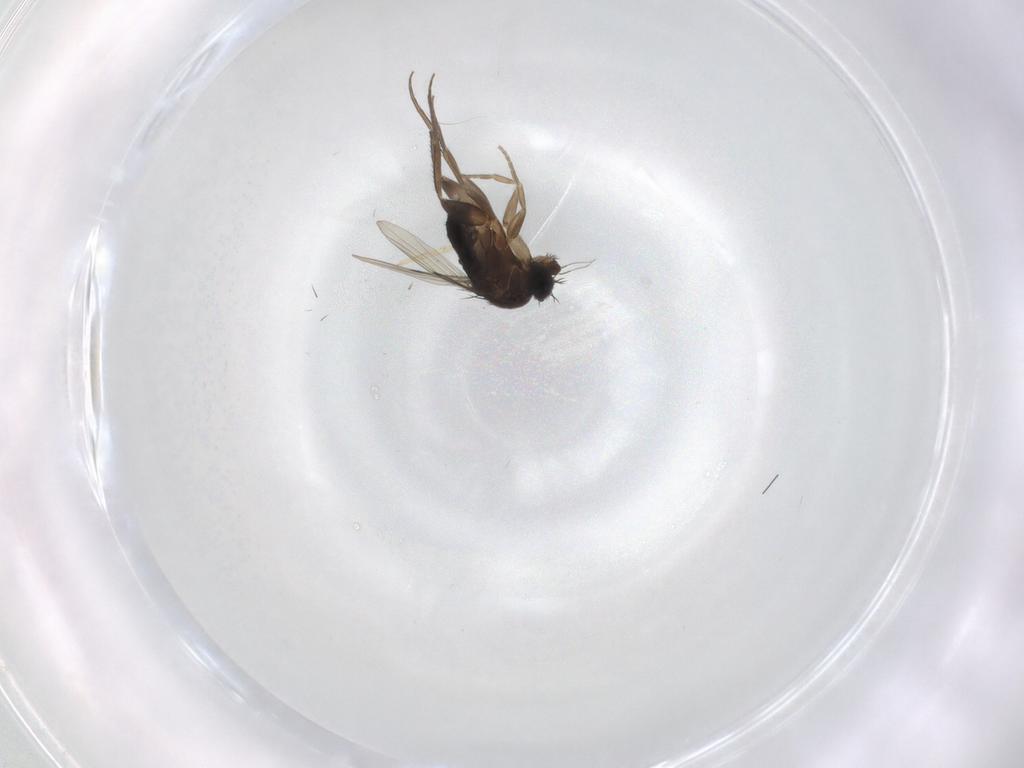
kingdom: Animalia
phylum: Arthropoda
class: Insecta
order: Diptera
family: Phoridae
